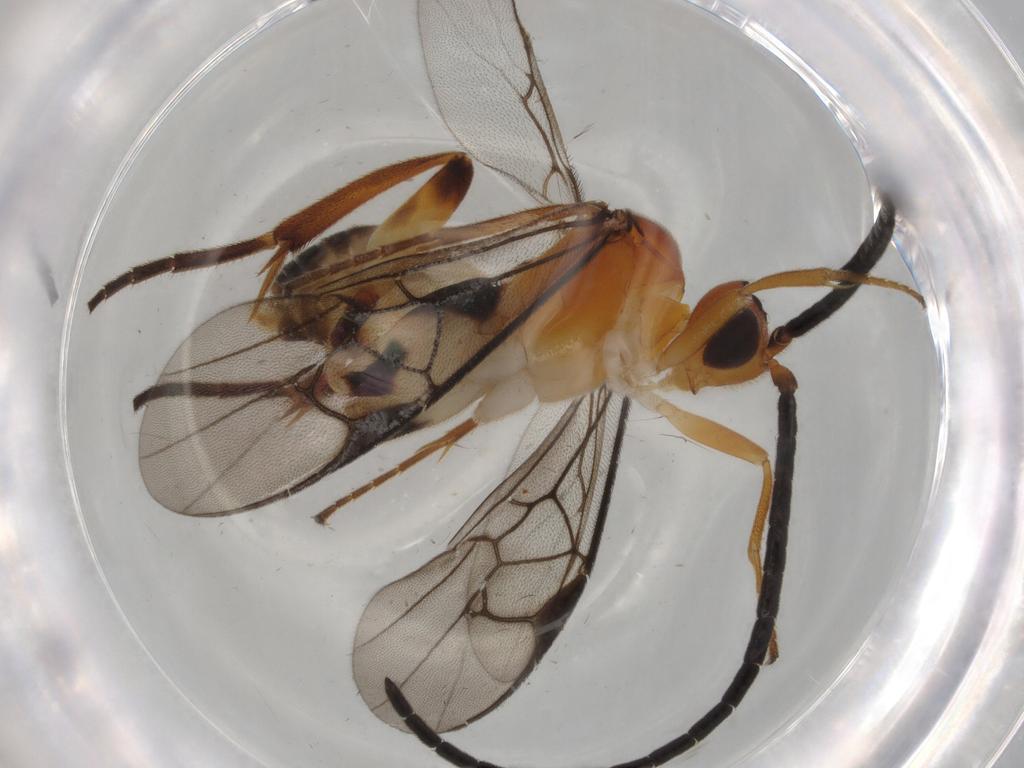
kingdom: Animalia
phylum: Arthropoda
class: Insecta
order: Hymenoptera
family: Eulophidae
